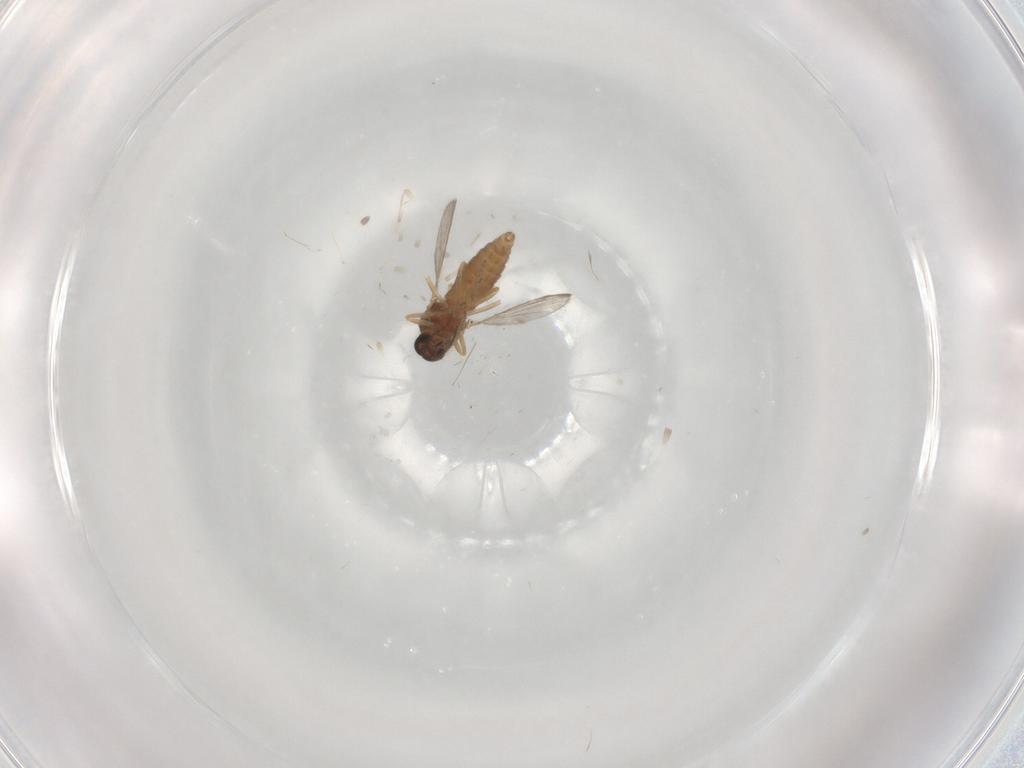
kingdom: Animalia
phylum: Arthropoda
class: Insecta
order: Diptera
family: Ceratopogonidae
